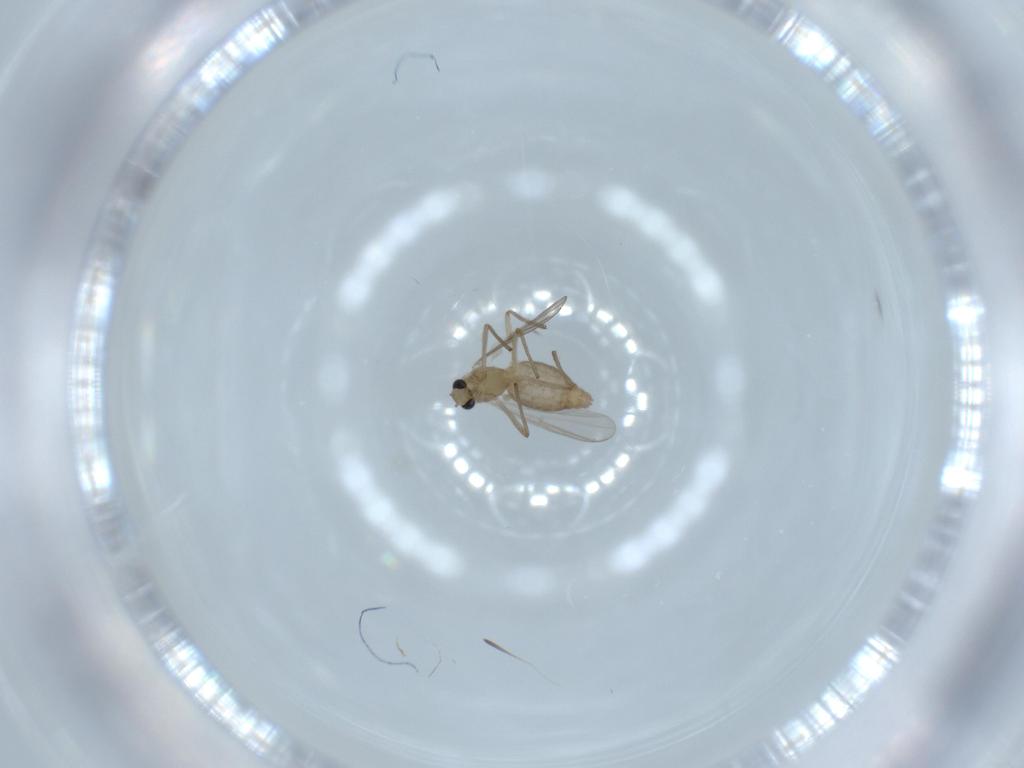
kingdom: Animalia
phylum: Arthropoda
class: Insecta
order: Diptera
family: Chironomidae
